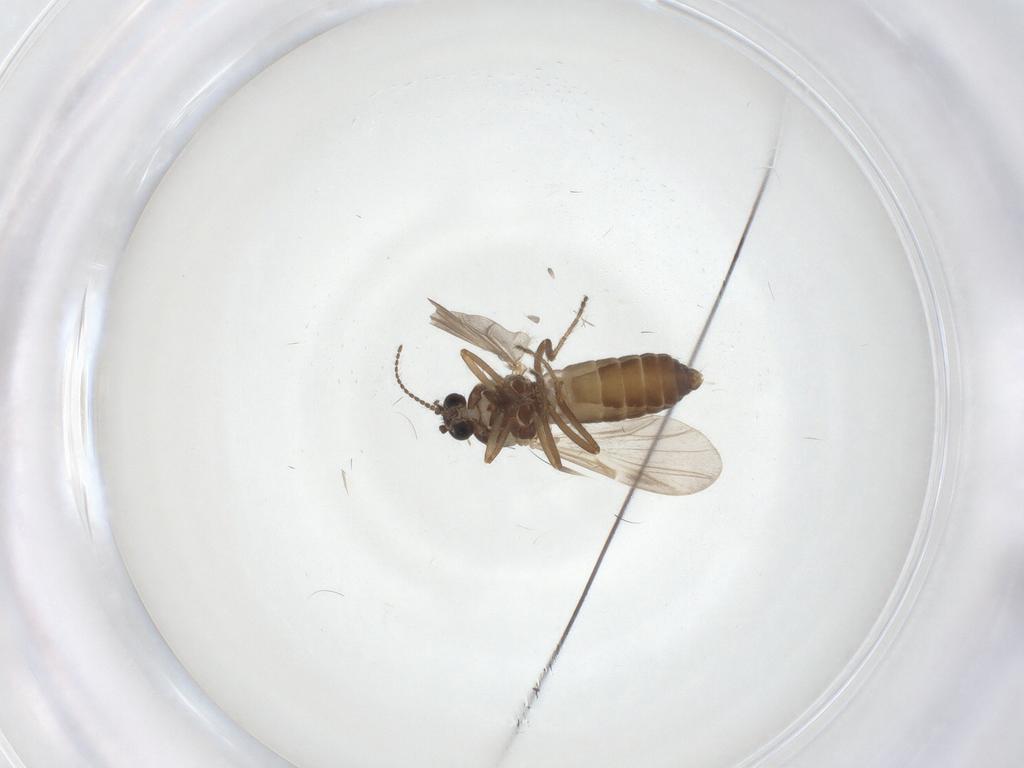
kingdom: Animalia
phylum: Arthropoda
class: Insecta
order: Diptera
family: Ceratopogonidae
